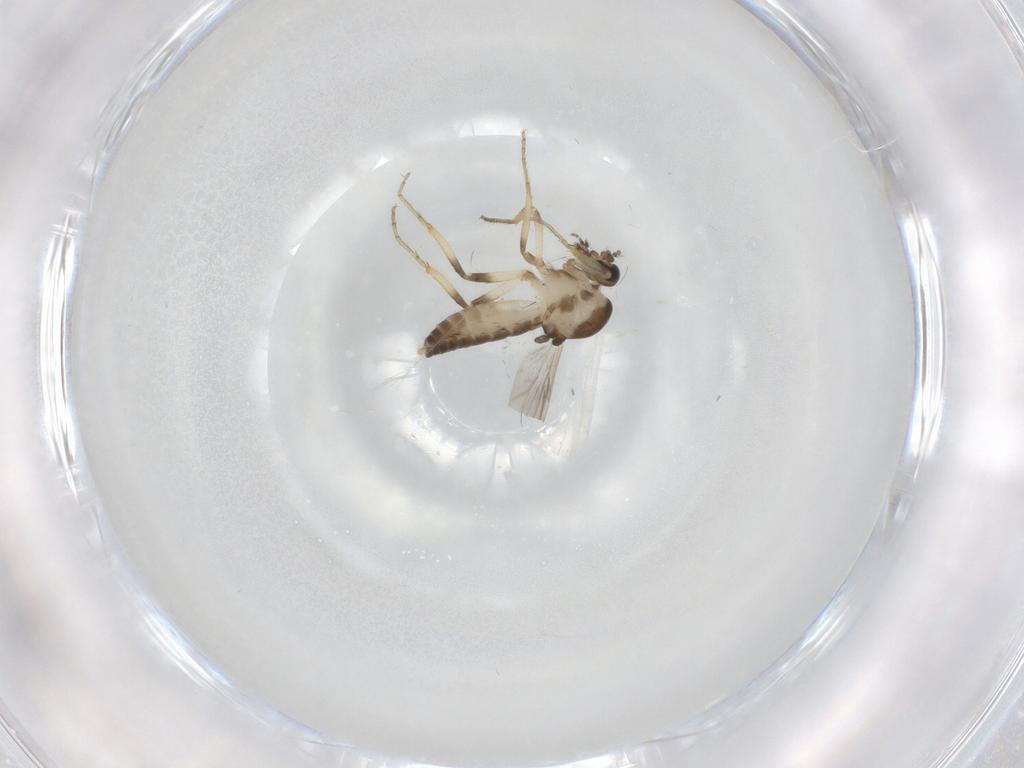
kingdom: Animalia
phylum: Arthropoda
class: Insecta
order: Diptera
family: Ceratopogonidae
